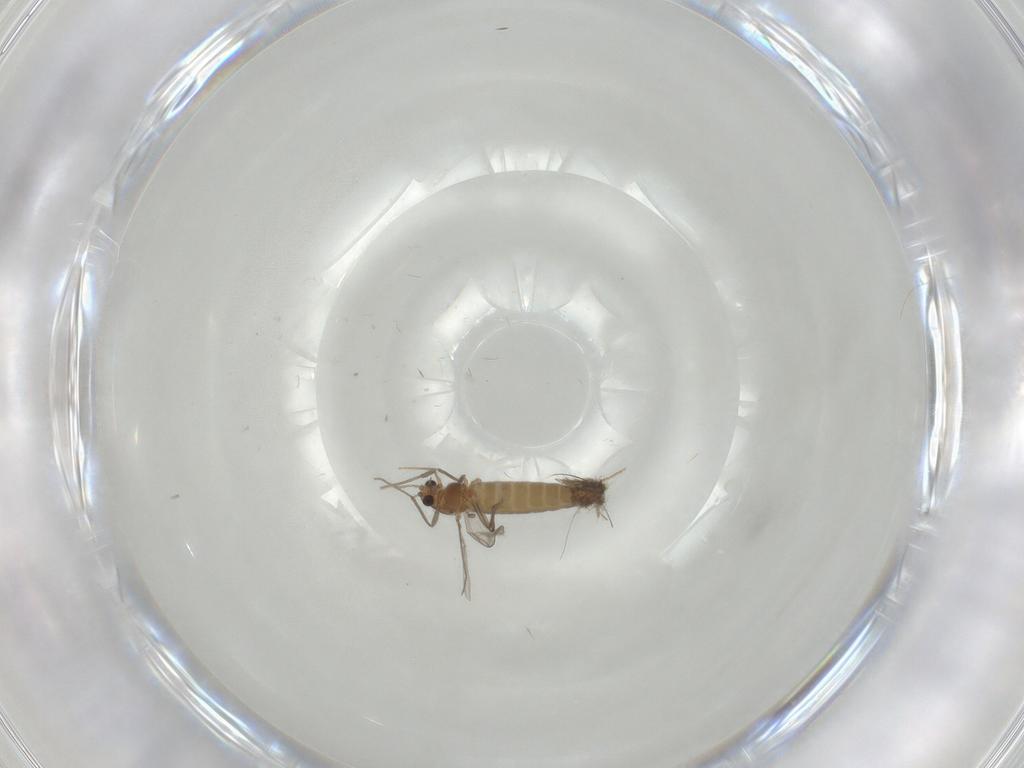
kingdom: Animalia
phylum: Arthropoda
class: Insecta
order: Diptera
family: Chironomidae
